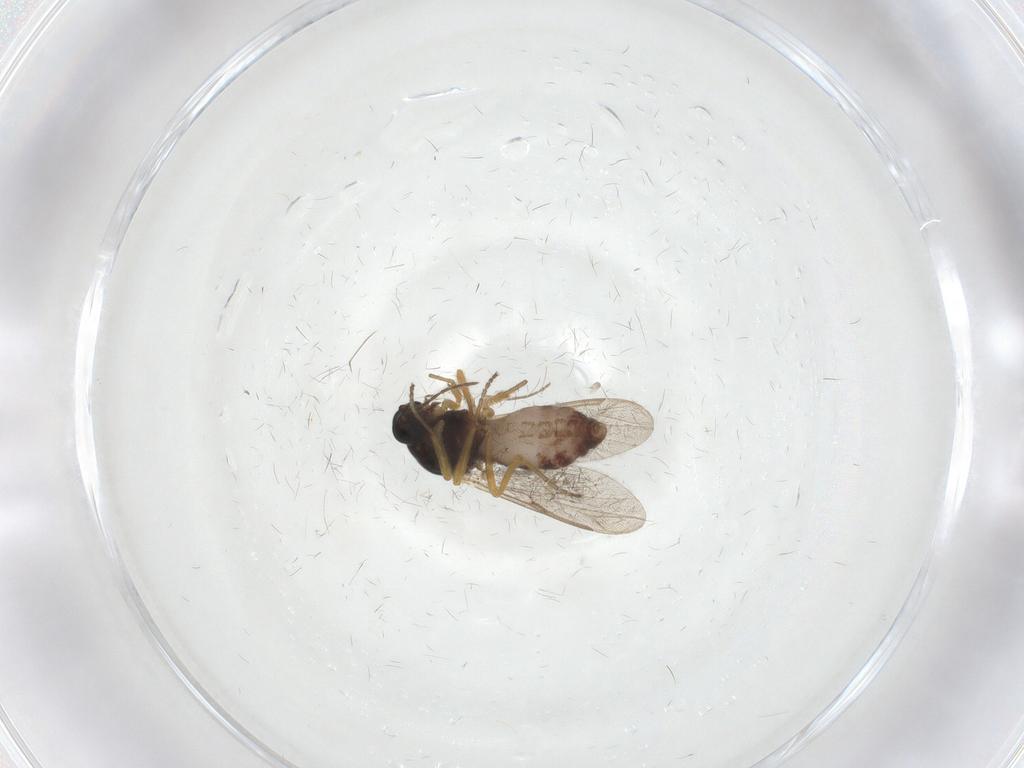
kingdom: Animalia
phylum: Arthropoda
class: Insecta
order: Diptera
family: Ceratopogonidae
